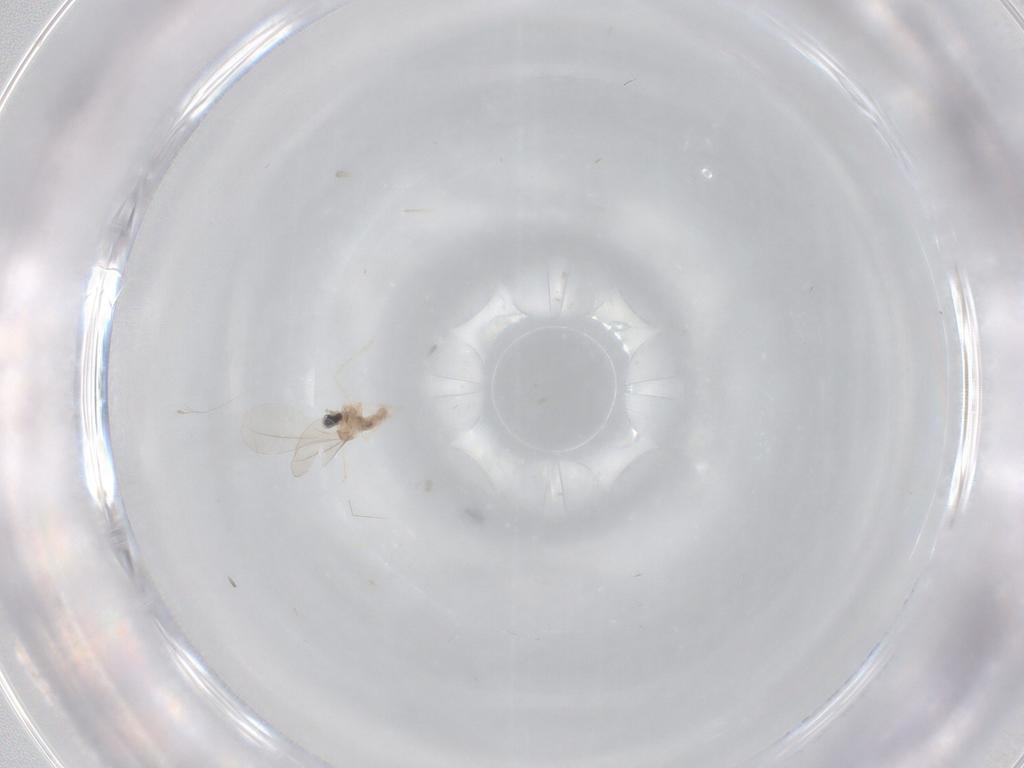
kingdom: Animalia
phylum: Arthropoda
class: Insecta
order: Diptera
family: Cecidomyiidae
